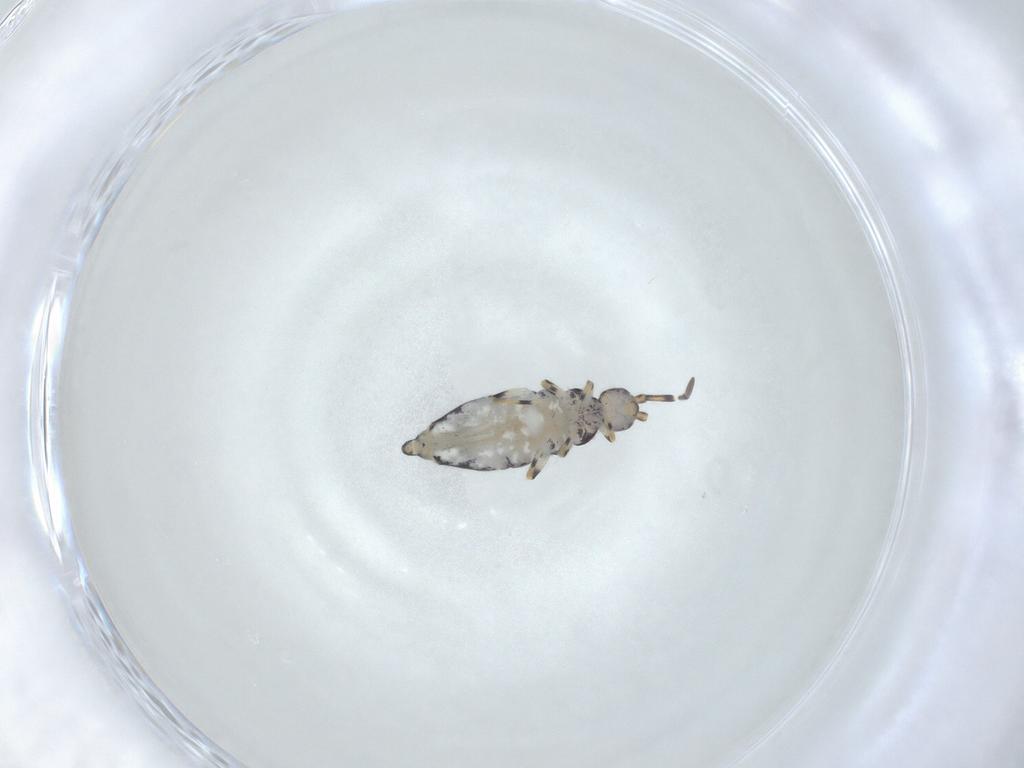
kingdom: Animalia
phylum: Arthropoda
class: Collembola
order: Entomobryomorpha
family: Entomobryidae
